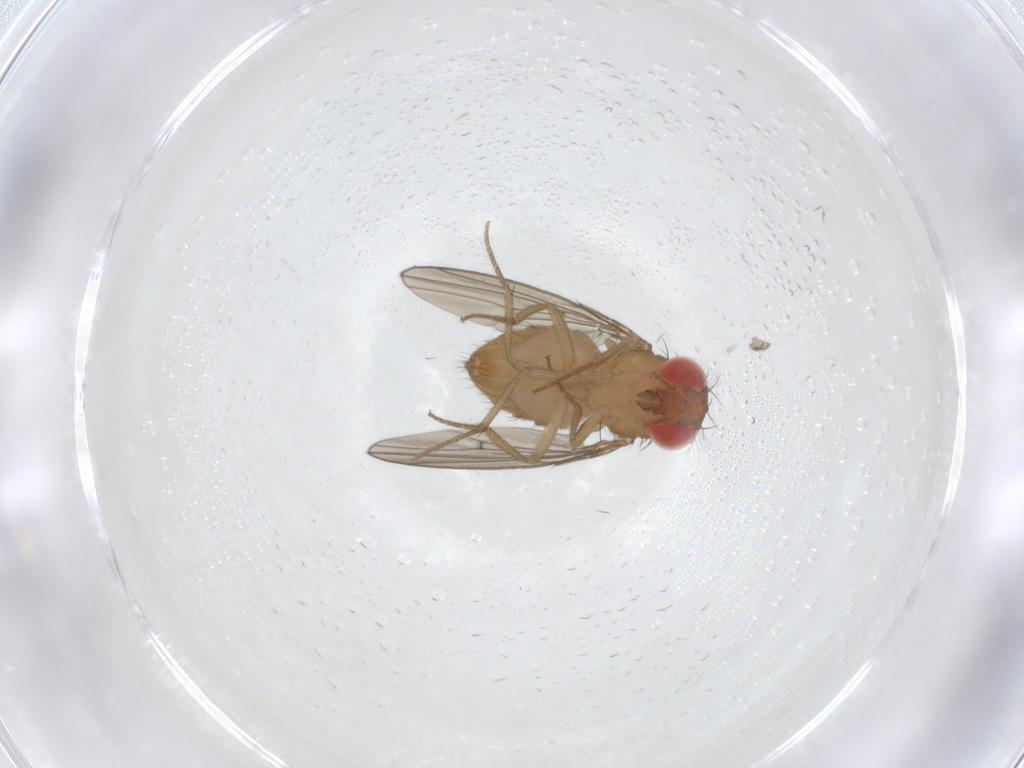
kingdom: Animalia
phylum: Arthropoda
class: Insecta
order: Diptera
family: Drosophilidae
